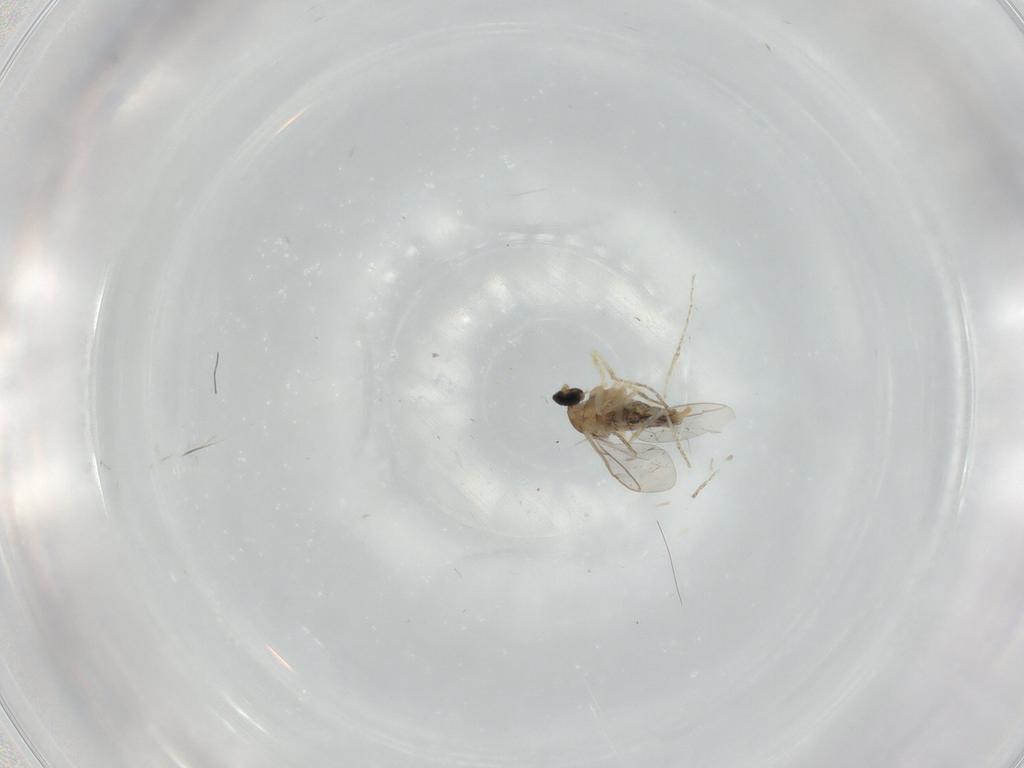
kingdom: Animalia
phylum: Arthropoda
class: Insecta
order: Diptera
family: Cecidomyiidae
